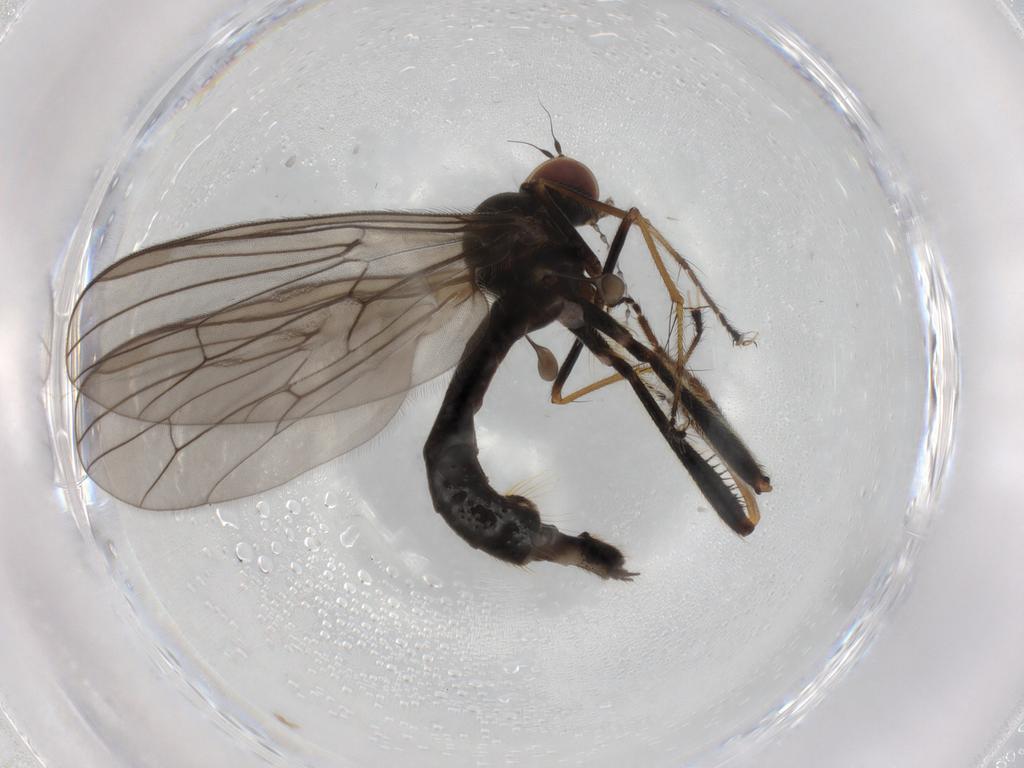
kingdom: Animalia
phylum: Arthropoda
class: Insecta
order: Diptera
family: Hybotidae
